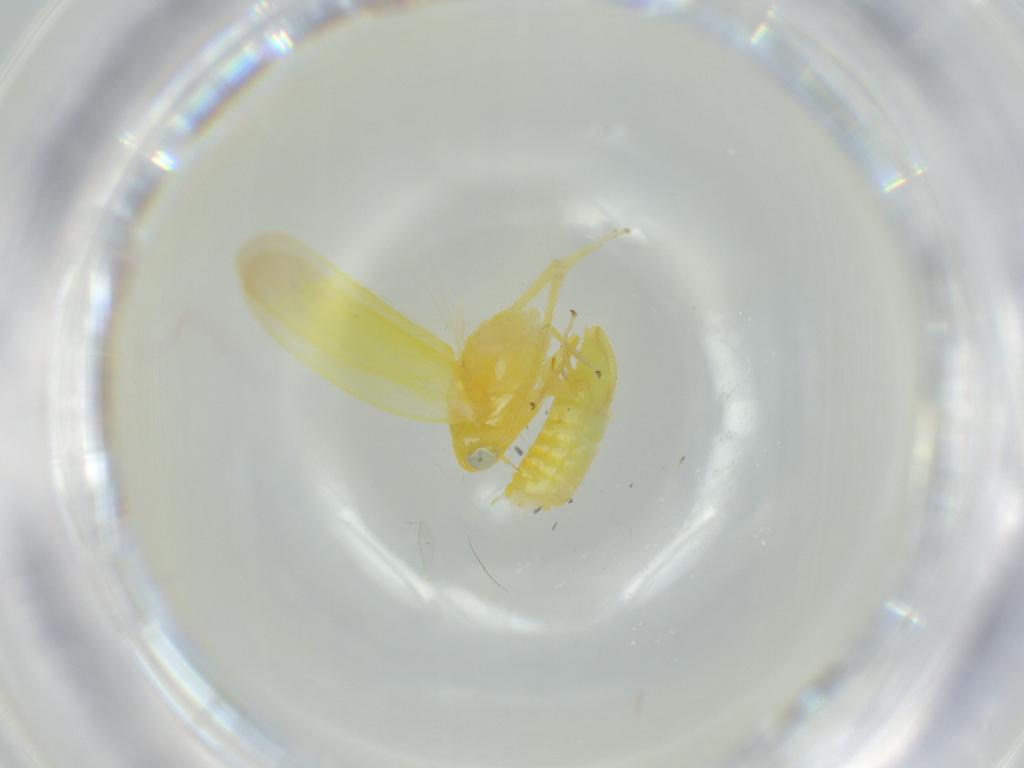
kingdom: Animalia
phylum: Arthropoda
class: Insecta
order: Hemiptera
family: Cicadellidae
